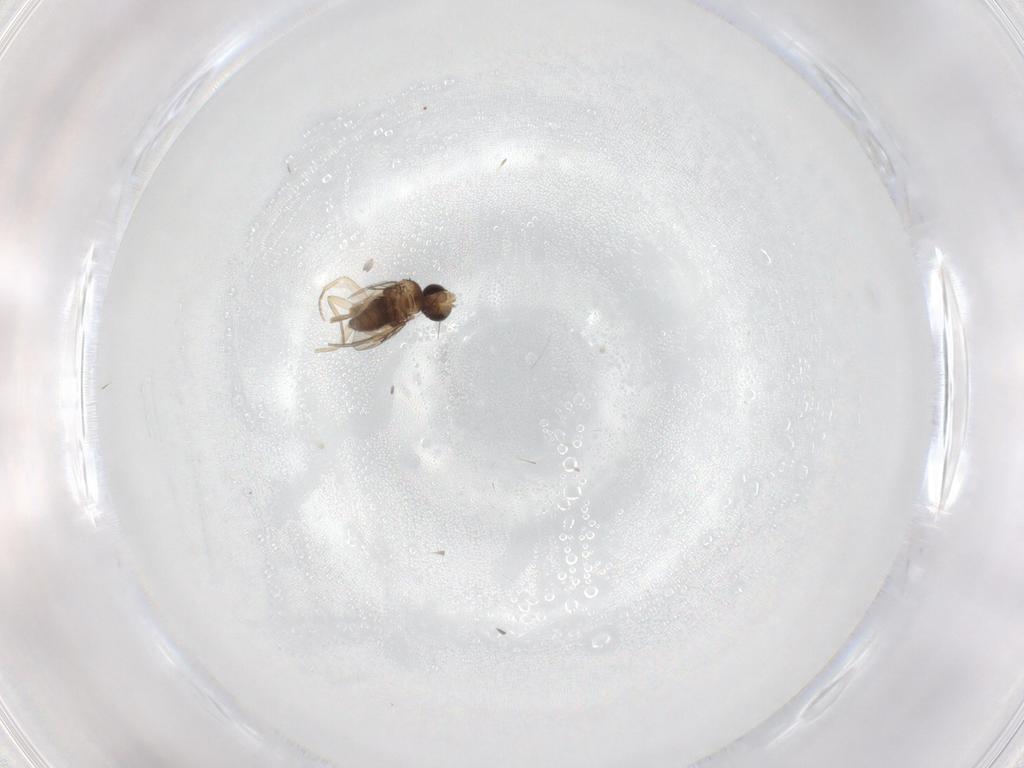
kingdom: Animalia
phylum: Arthropoda
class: Insecta
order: Diptera
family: Phoridae
